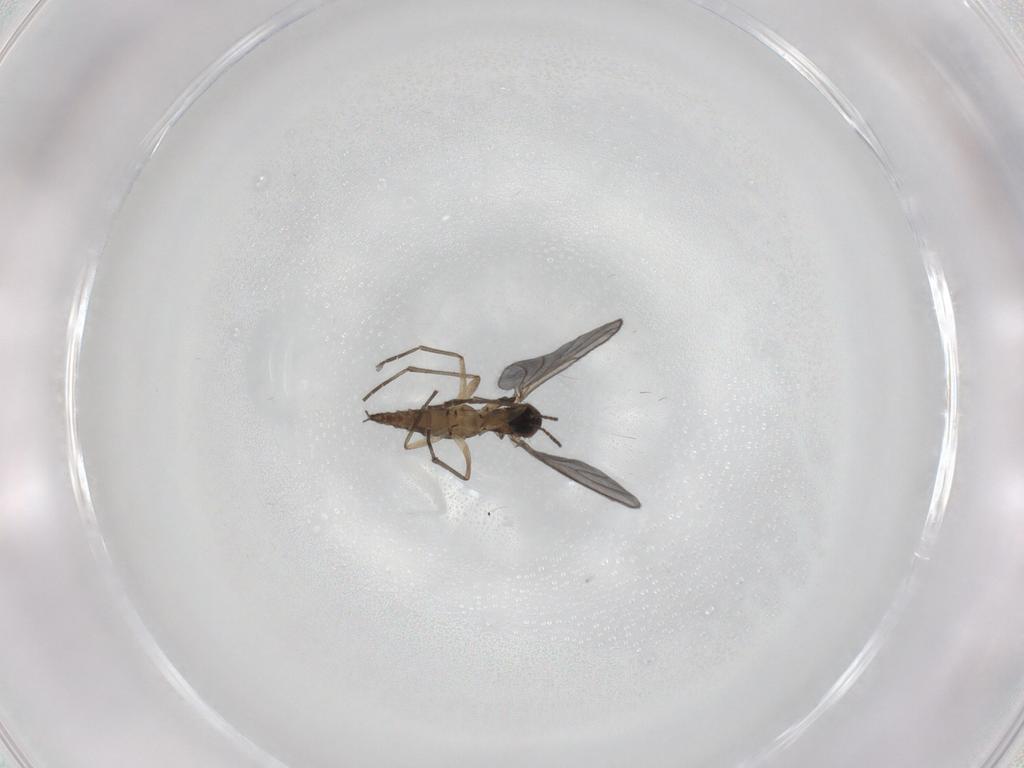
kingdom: Animalia
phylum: Arthropoda
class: Insecta
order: Diptera
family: Sciaridae
